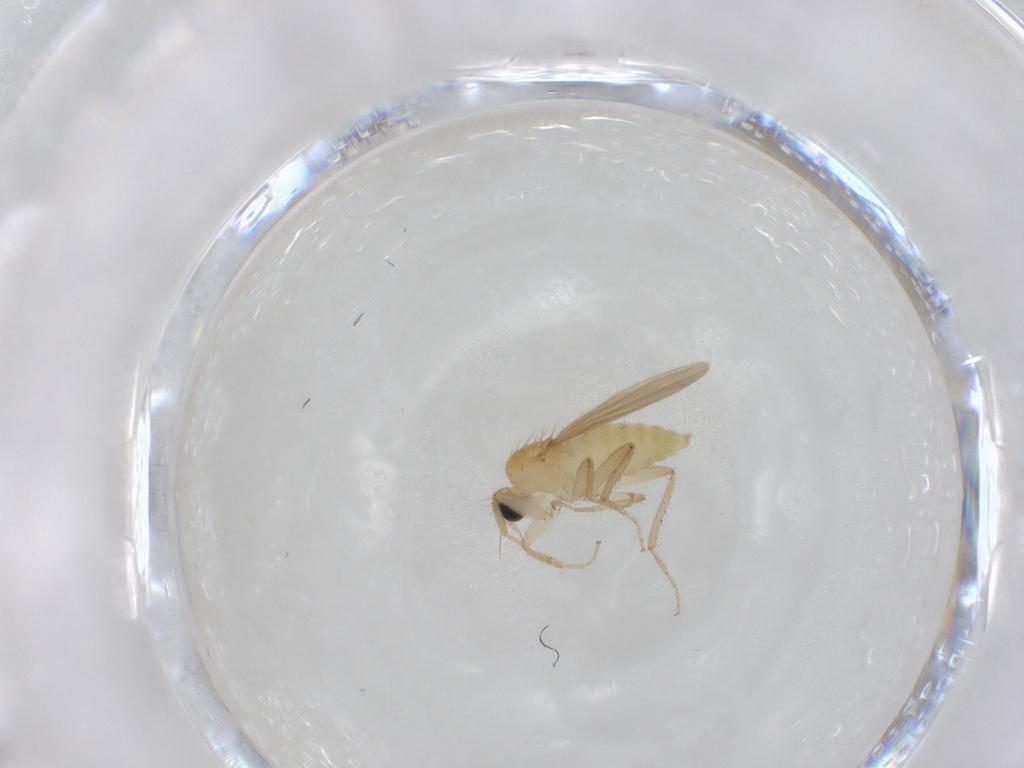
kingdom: Animalia
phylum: Arthropoda
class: Insecta
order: Diptera
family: Hybotidae
